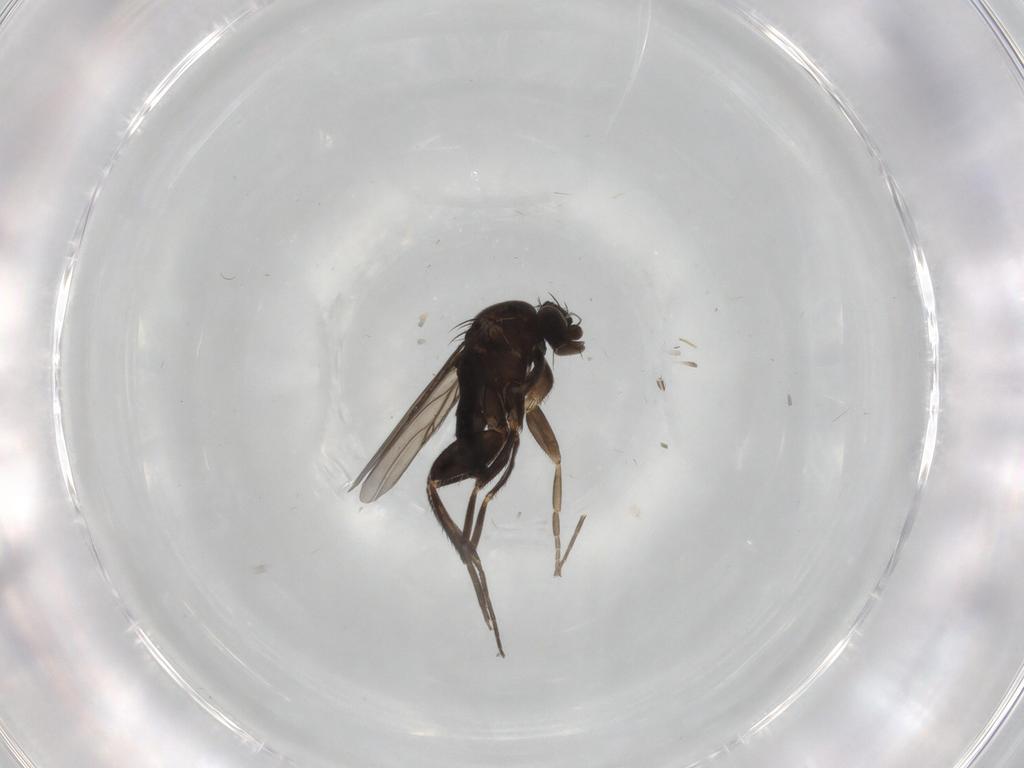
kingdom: Animalia
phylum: Arthropoda
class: Insecta
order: Diptera
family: Phoridae
